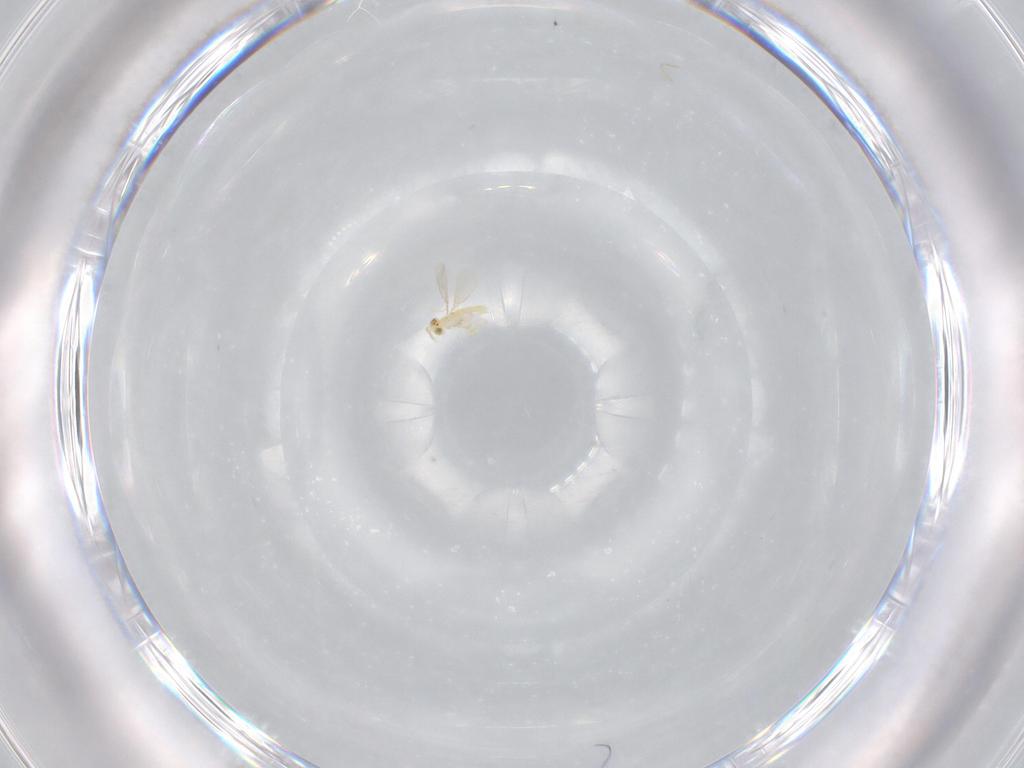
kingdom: Animalia
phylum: Arthropoda
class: Insecta
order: Hymenoptera
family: Aphelinidae
